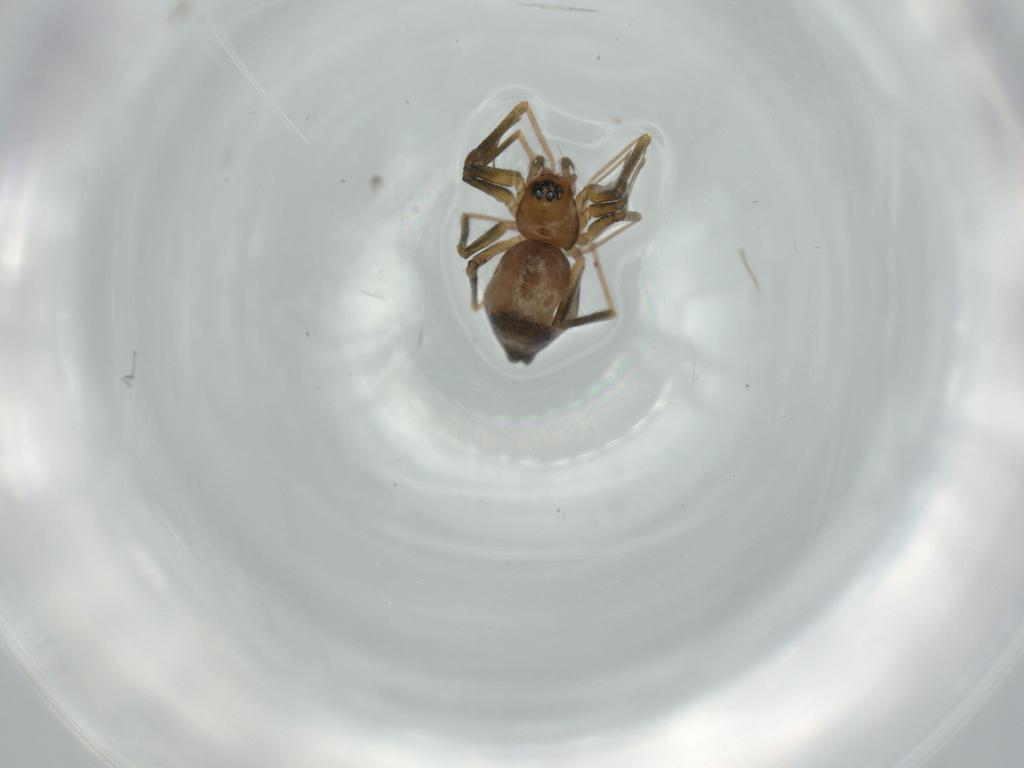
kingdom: Animalia
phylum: Arthropoda
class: Arachnida
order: Araneae
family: Linyphiidae
